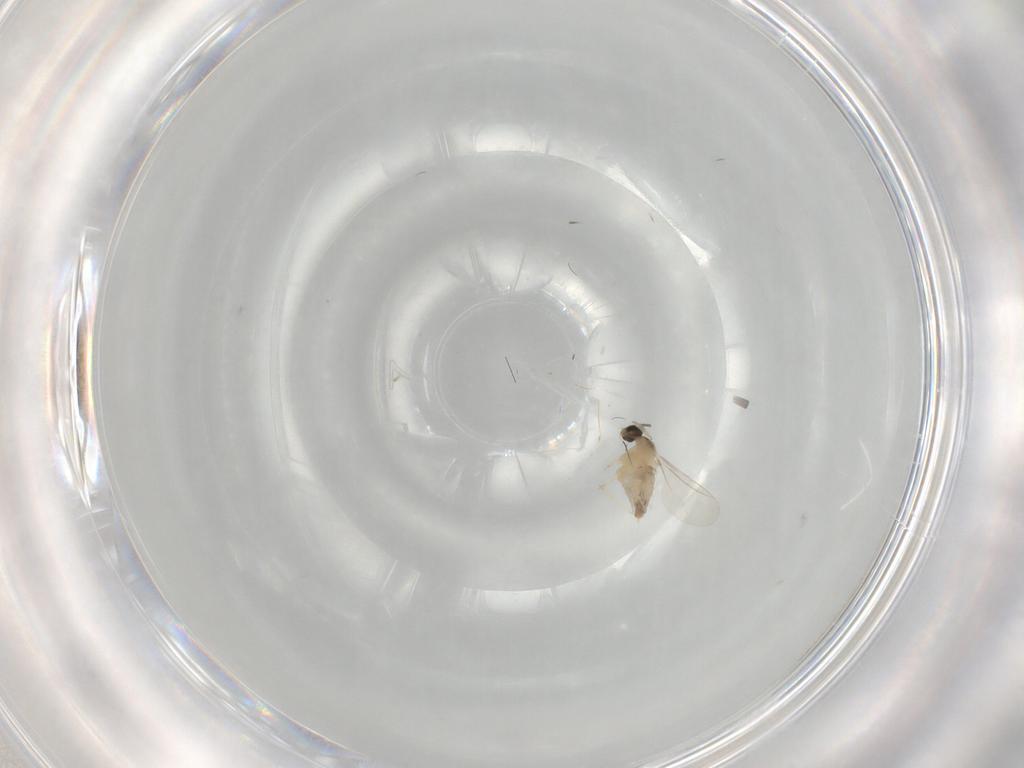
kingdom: Animalia
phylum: Arthropoda
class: Insecta
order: Diptera
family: Cecidomyiidae
